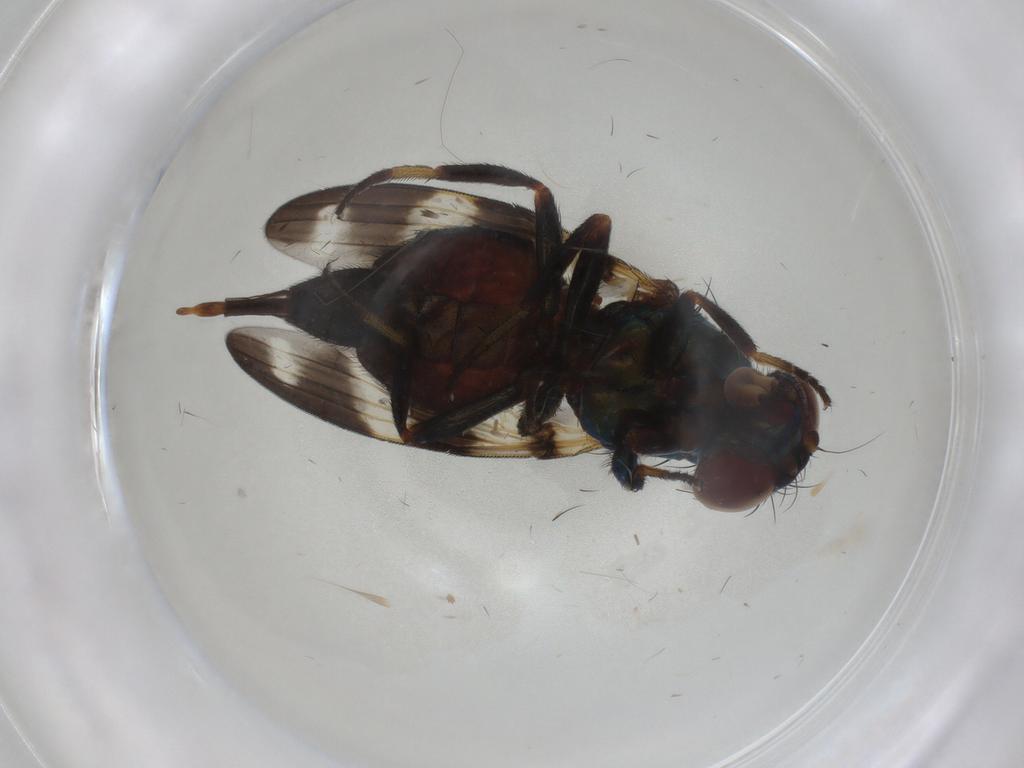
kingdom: Animalia
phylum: Arthropoda
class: Insecta
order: Diptera
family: Ulidiidae
